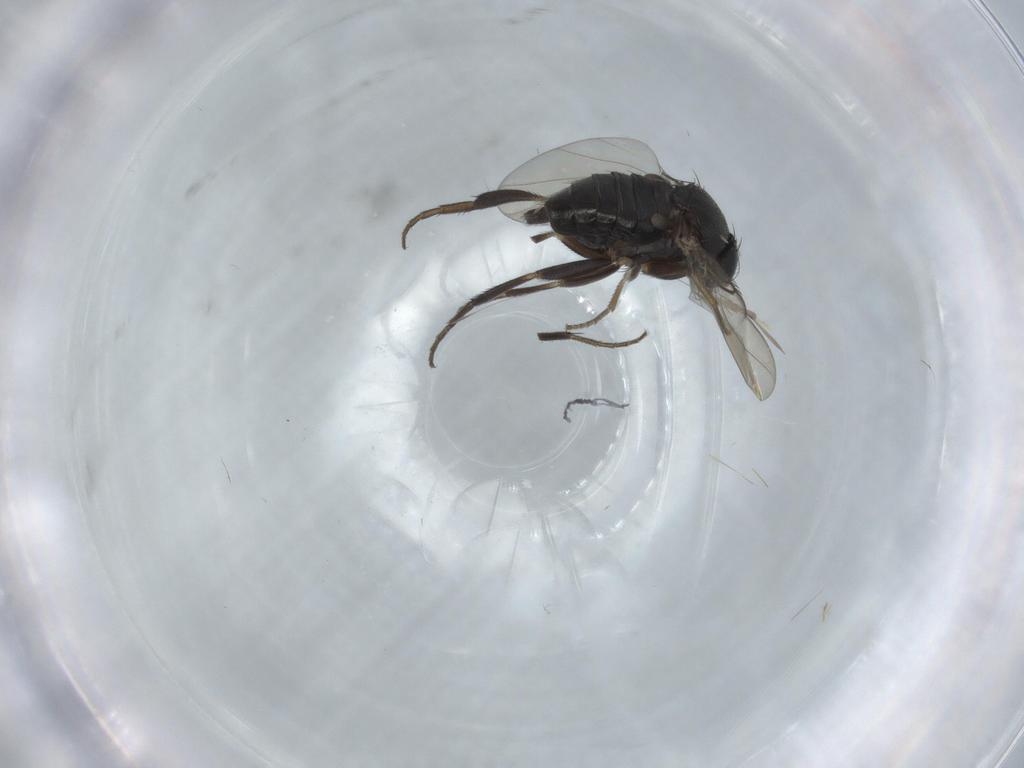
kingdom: Animalia
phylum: Arthropoda
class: Insecta
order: Diptera
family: Phoridae
